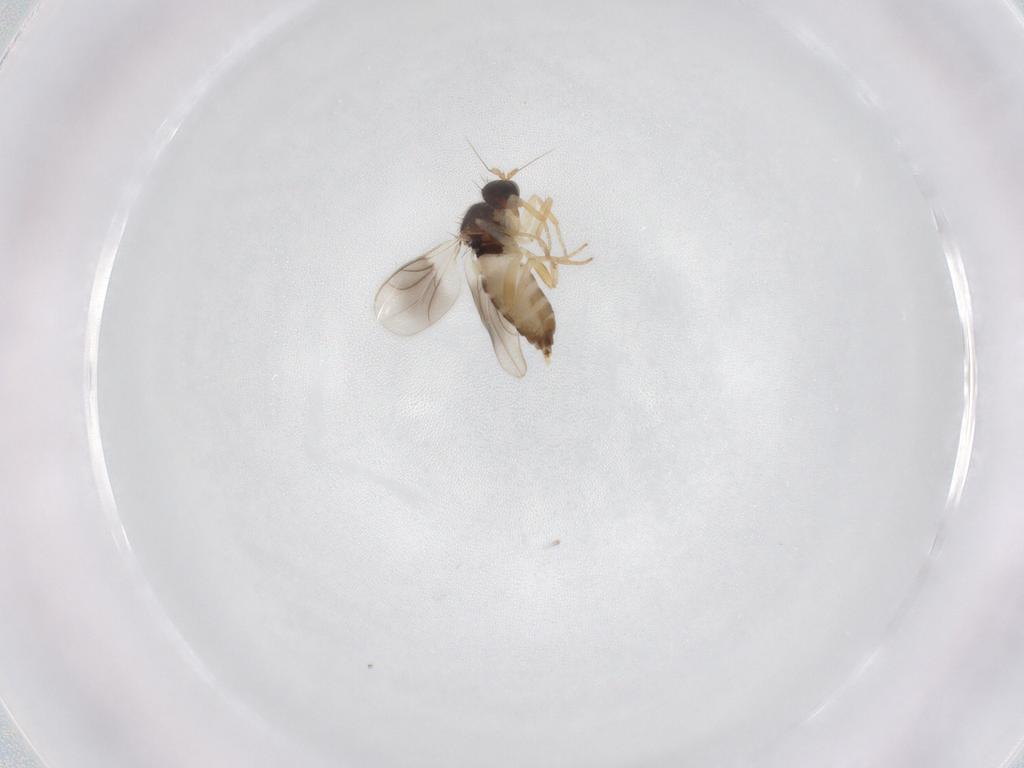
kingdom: Animalia
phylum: Arthropoda
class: Insecta
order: Diptera
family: Hybotidae
